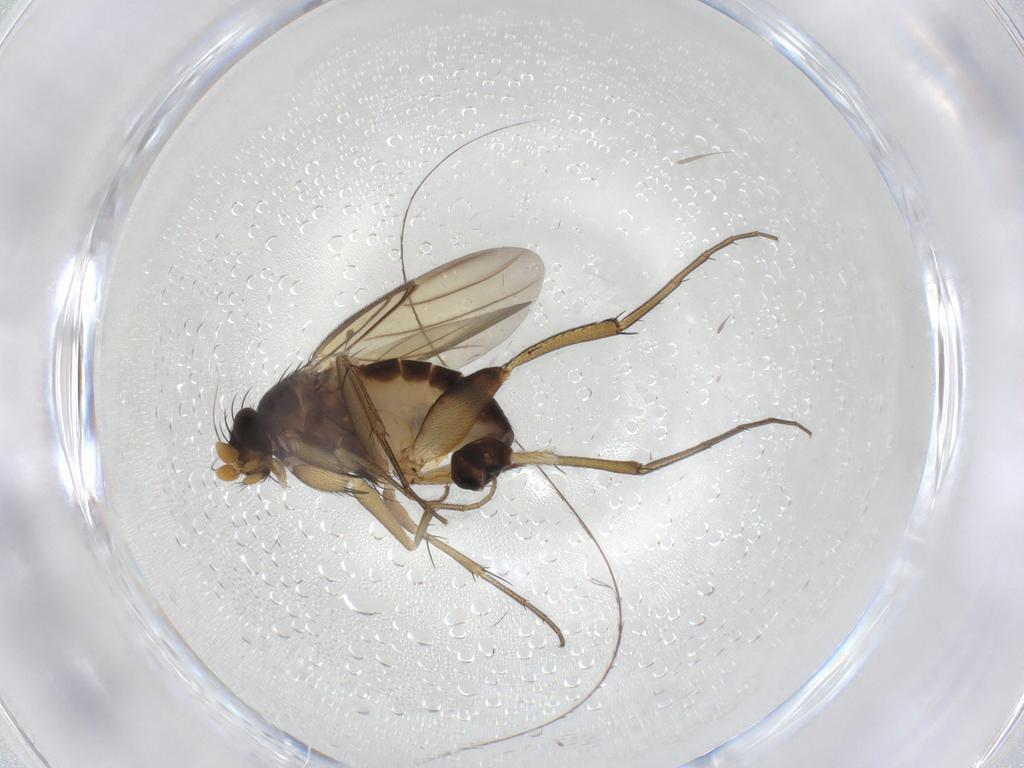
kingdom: Animalia
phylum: Arthropoda
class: Insecta
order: Diptera
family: Phoridae
